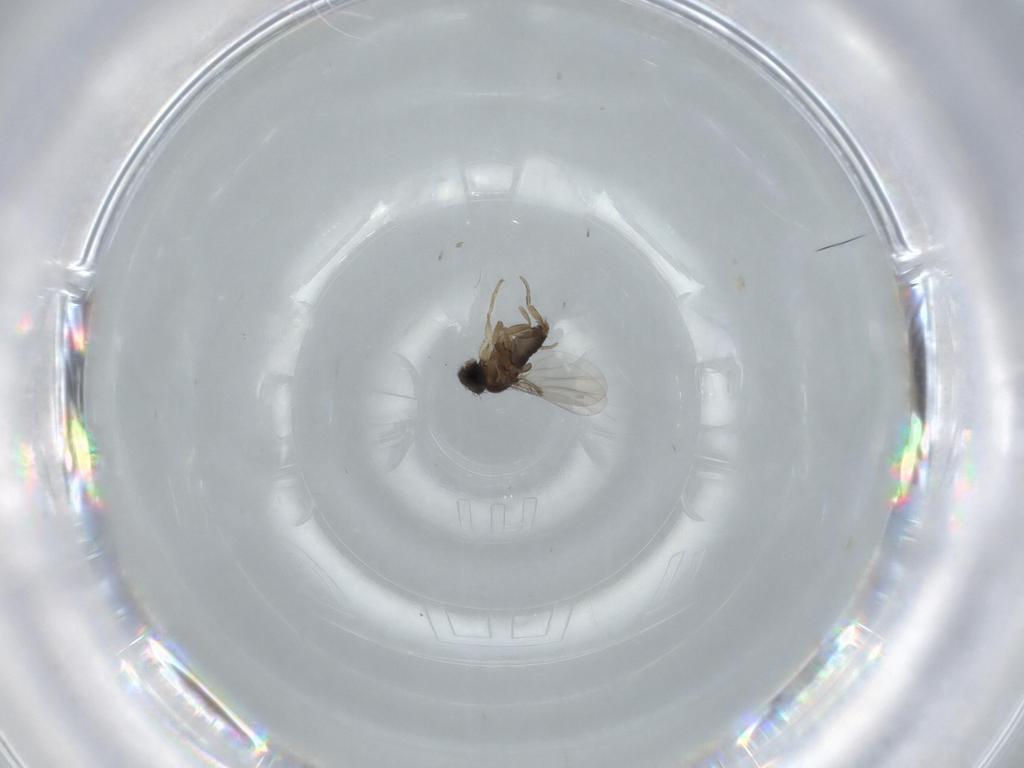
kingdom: Animalia
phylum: Arthropoda
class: Insecta
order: Diptera
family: Phoridae
